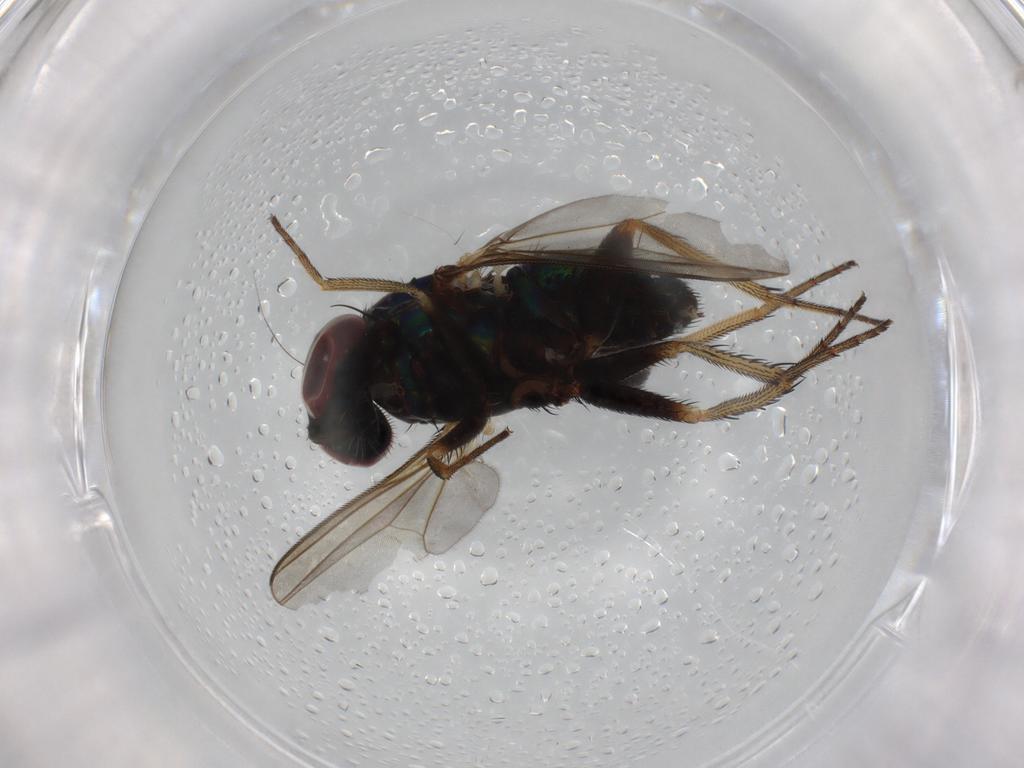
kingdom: Animalia
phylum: Arthropoda
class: Insecta
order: Diptera
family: Dolichopodidae
